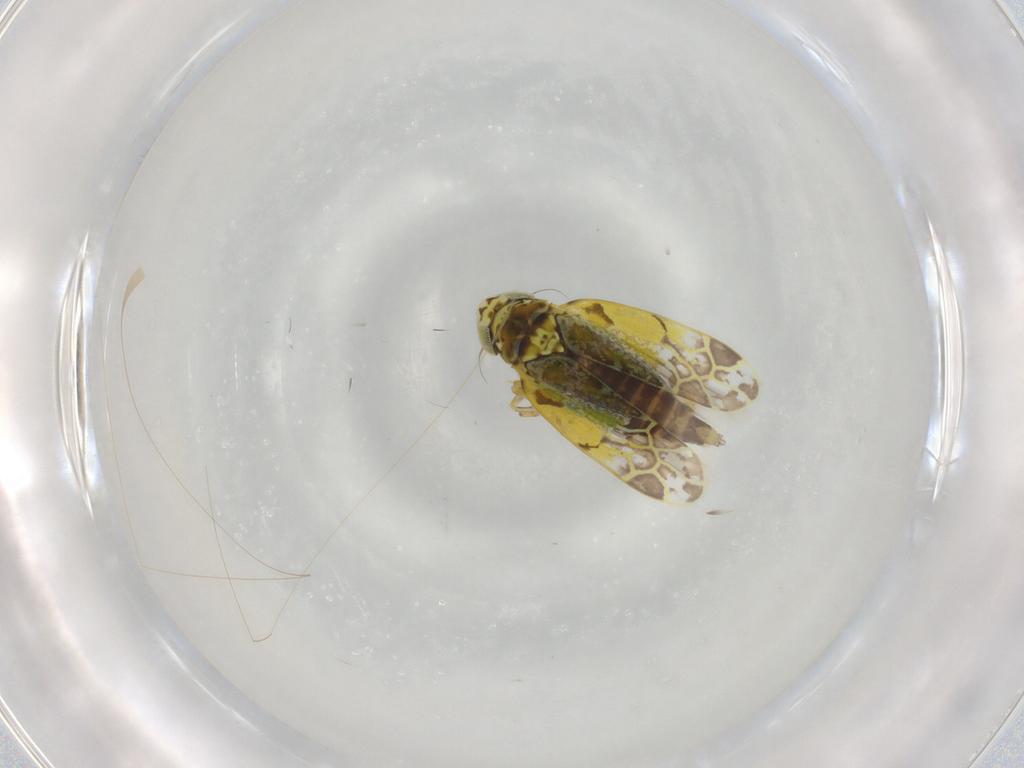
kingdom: Animalia
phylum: Arthropoda
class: Insecta
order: Hemiptera
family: Cicadellidae
